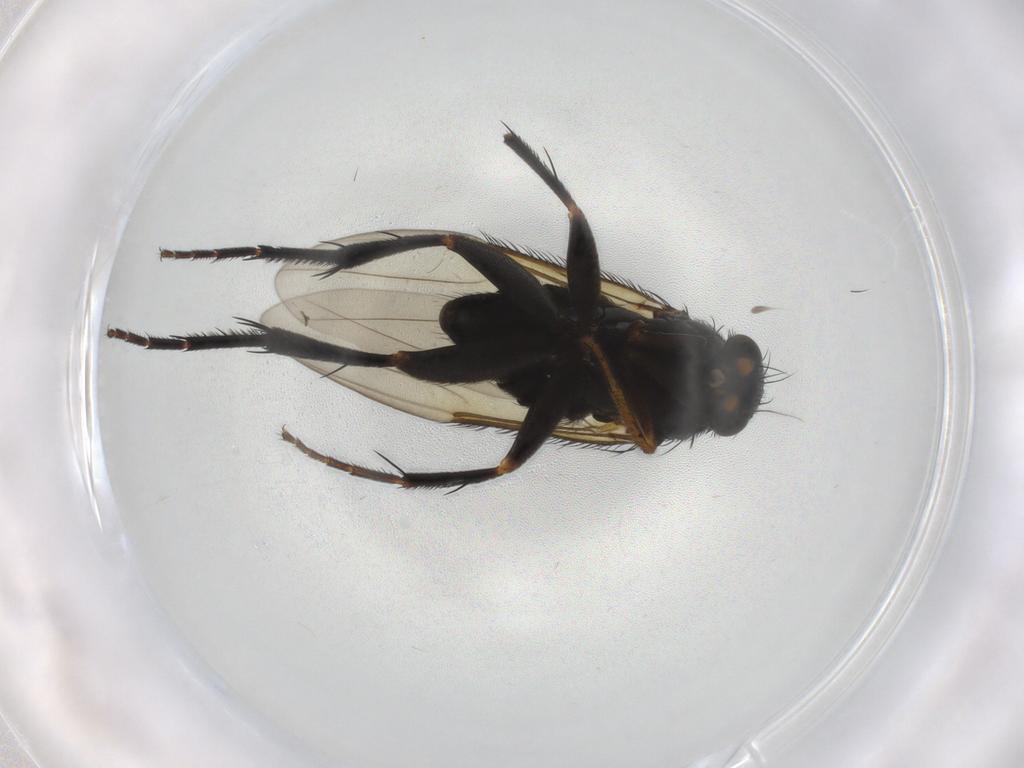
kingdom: Animalia
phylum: Arthropoda
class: Insecta
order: Diptera
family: Phoridae
